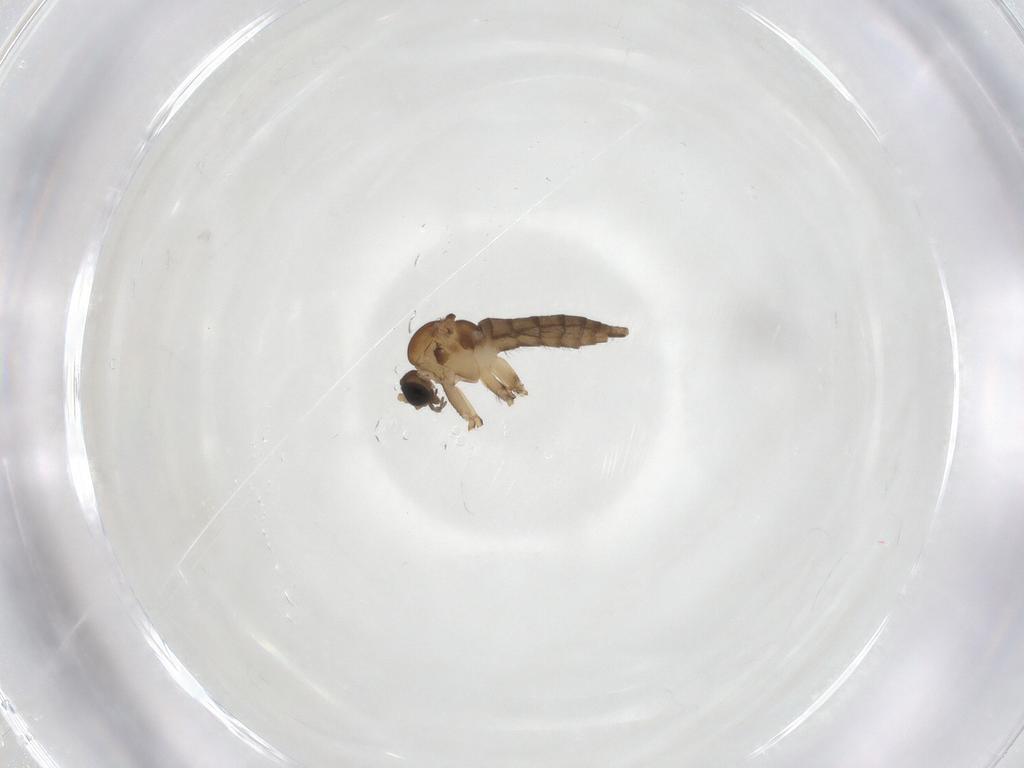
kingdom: Animalia
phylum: Arthropoda
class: Insecta
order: Diptera
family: Sciaridae
